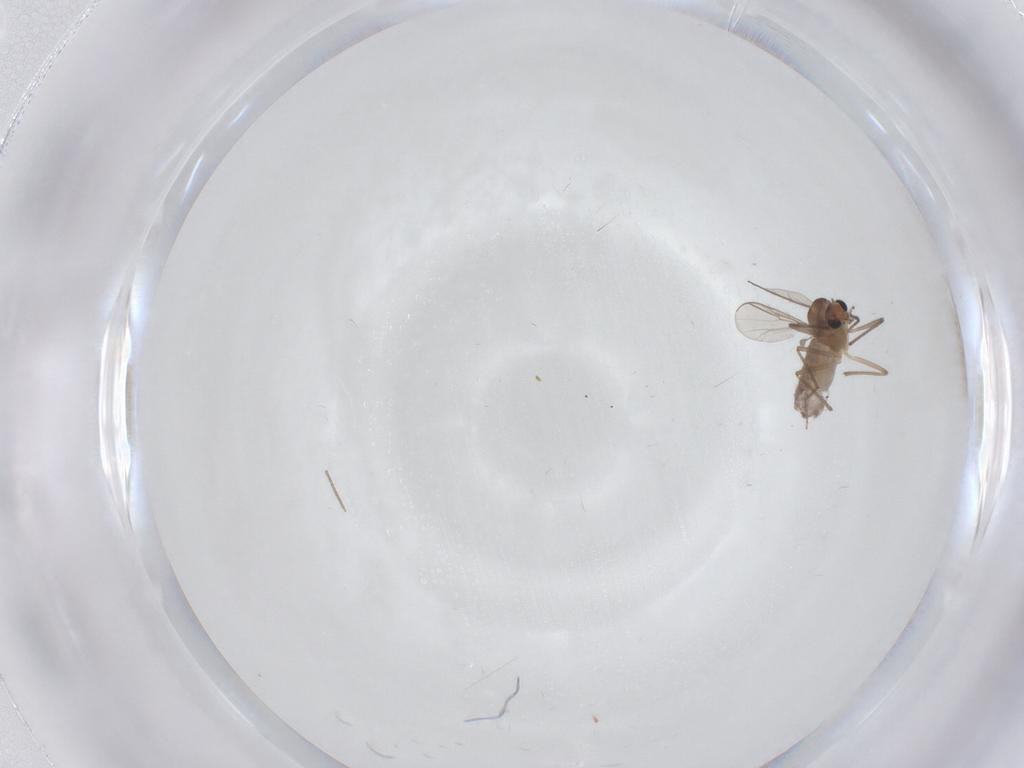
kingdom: Animalia
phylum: Arthropoda
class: Insecta
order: Diptera
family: Chironomidae
